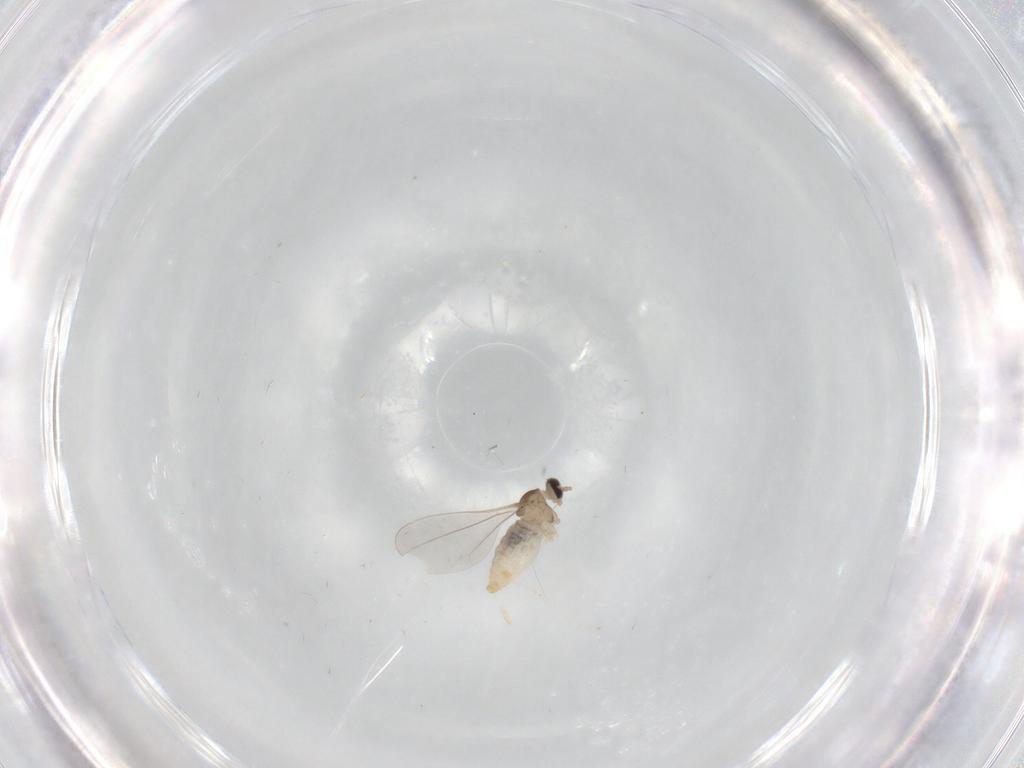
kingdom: Animalia
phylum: Arthropoda
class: Insecta
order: Diptera
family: Cecidomyiidae
